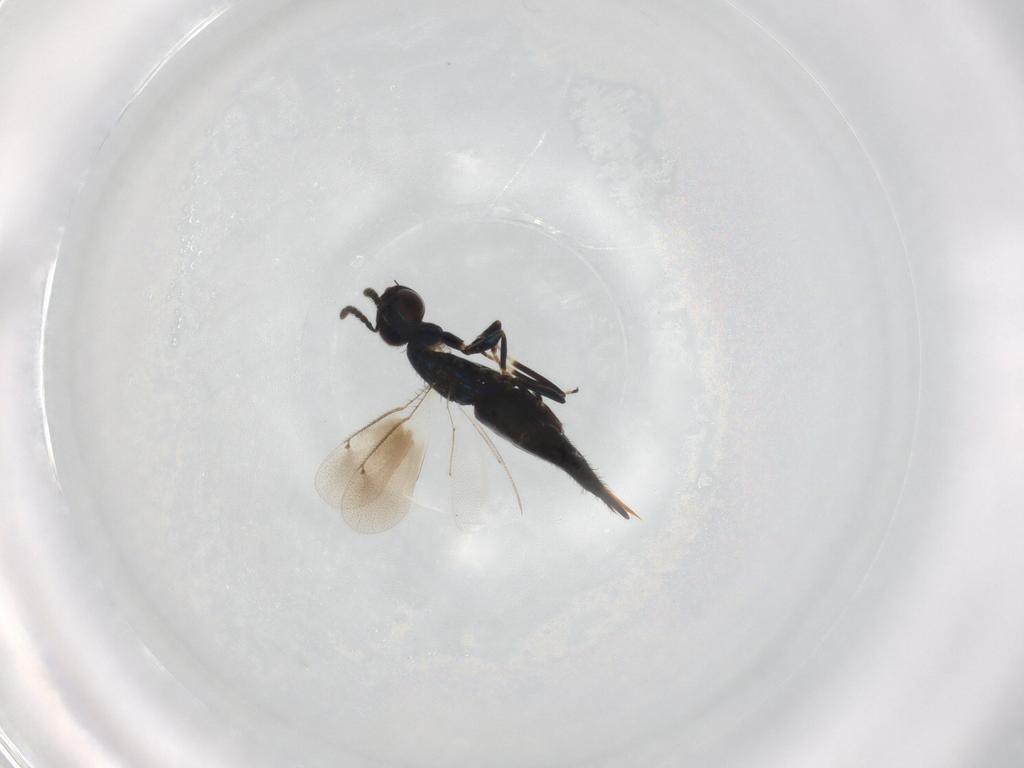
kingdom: Animalia
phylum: Arthropoda
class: Insecta
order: Hymenoptera
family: Eulophidae
